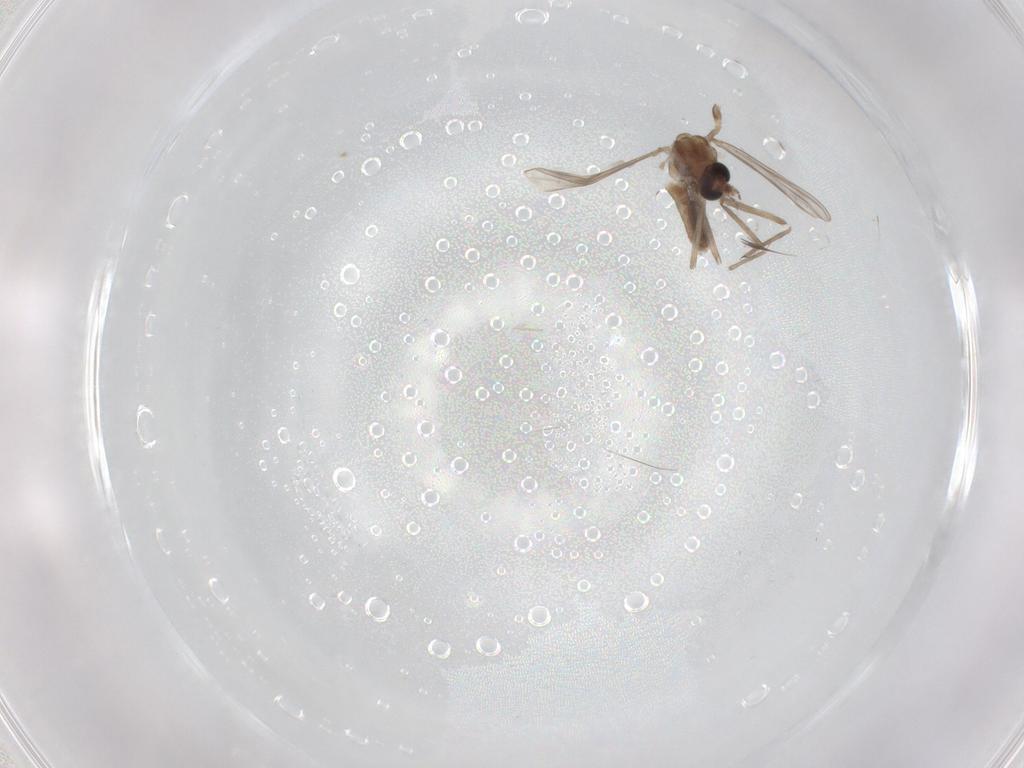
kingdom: Animalia
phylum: Arthropoda
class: Insecta
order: Diptera
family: Chironomidae
